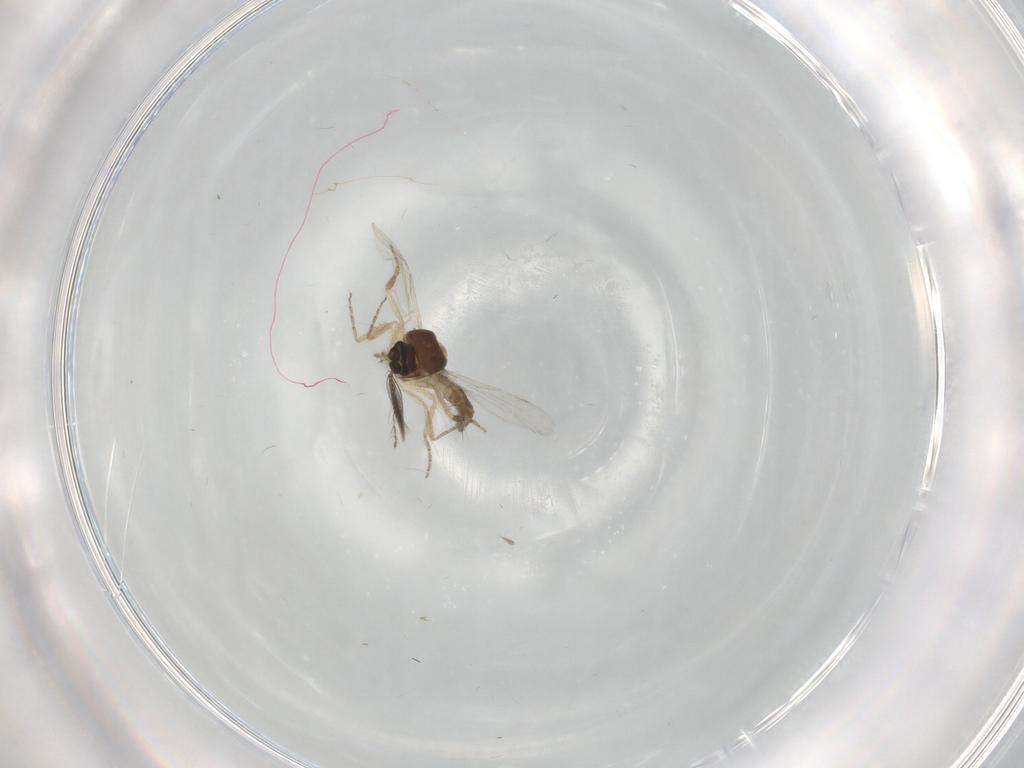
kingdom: Animalia
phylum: Arthropoda
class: Insecta
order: Diptera
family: Ceratopogonidae
